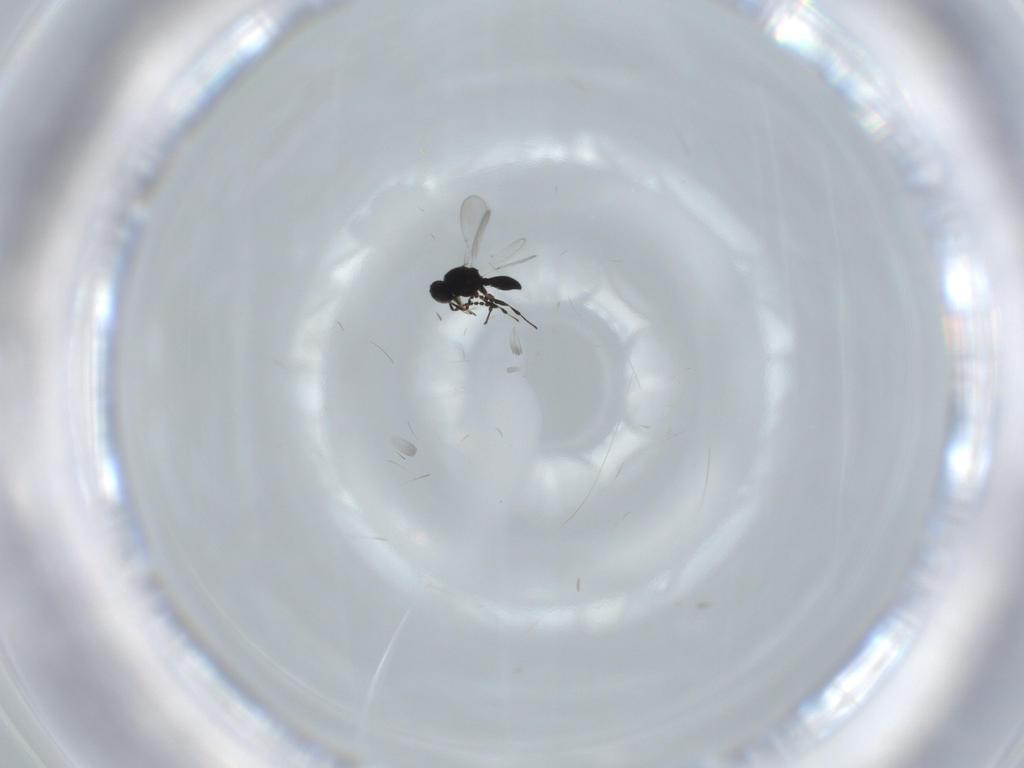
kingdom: Animalia
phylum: Arthropoda
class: Insecta
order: Hymenoptera
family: Platygastridae
